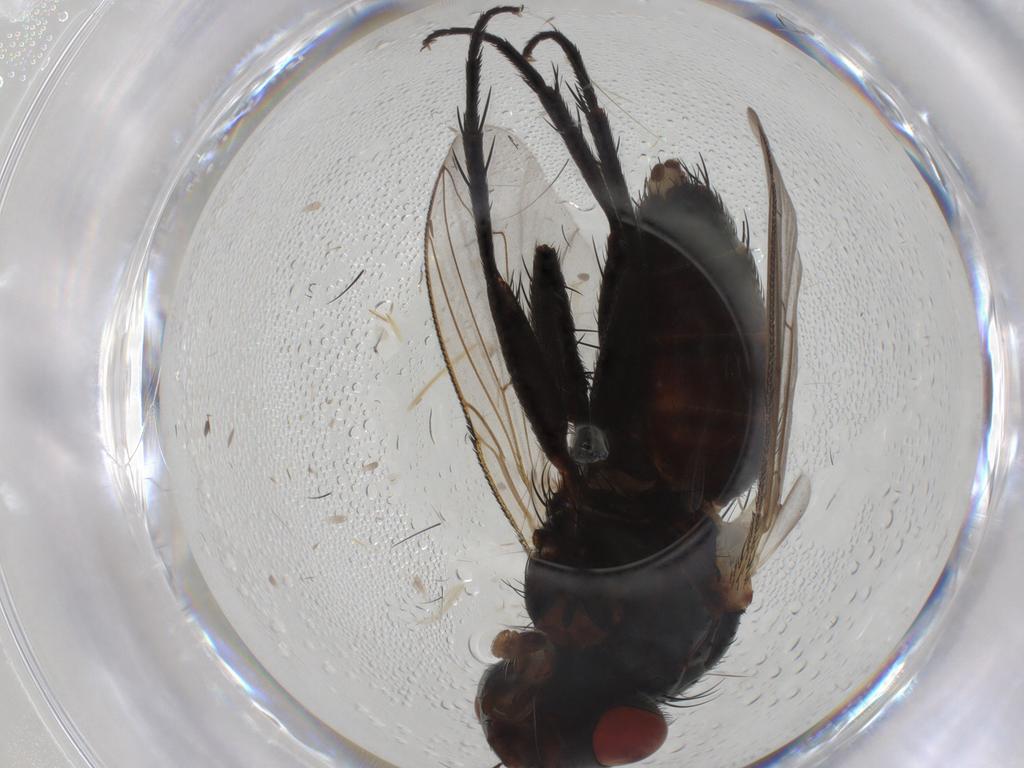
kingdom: Animalia
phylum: Arthropoda
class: Insecta
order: Diptera
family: Sarcophagidae
